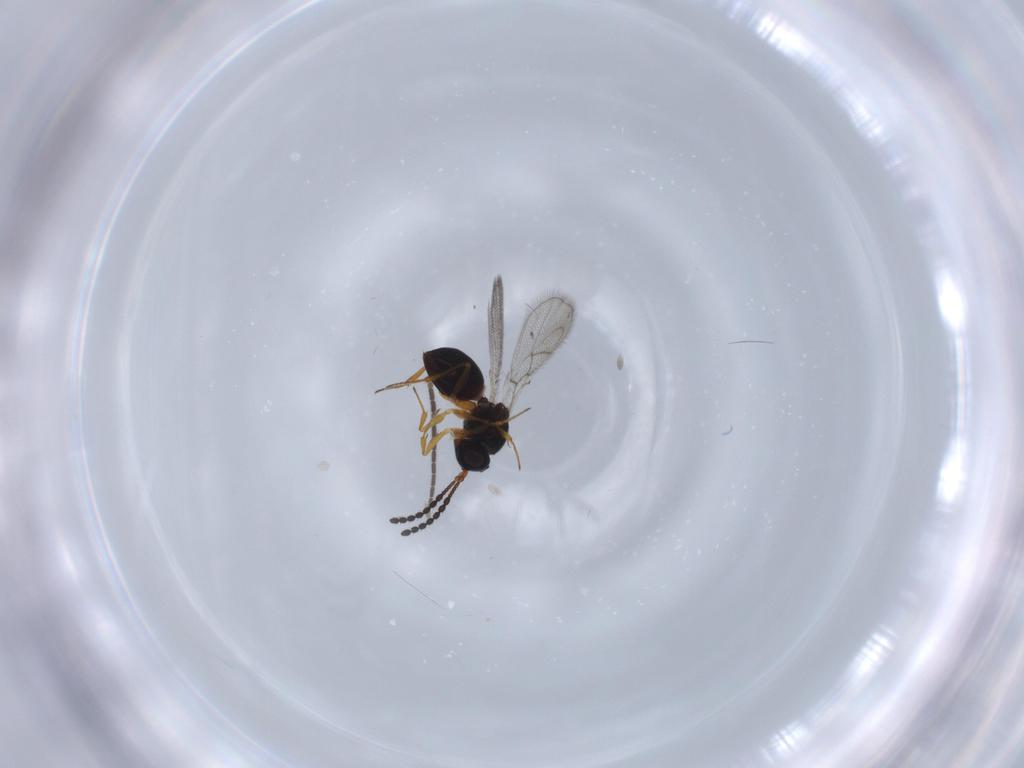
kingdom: Animalia
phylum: Arthropoda
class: Insecta
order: Hymenoptera
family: Figitidae
